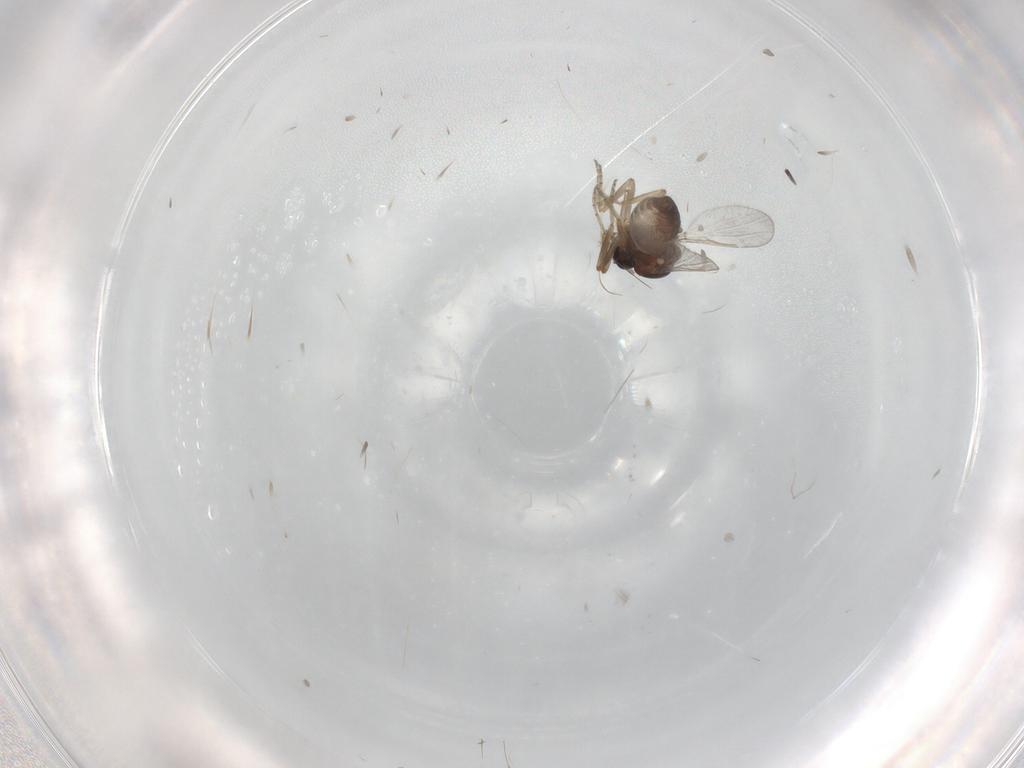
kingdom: Animalia
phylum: Arthropoda
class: Insecta
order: Diptera
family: Ceratopogonidae
